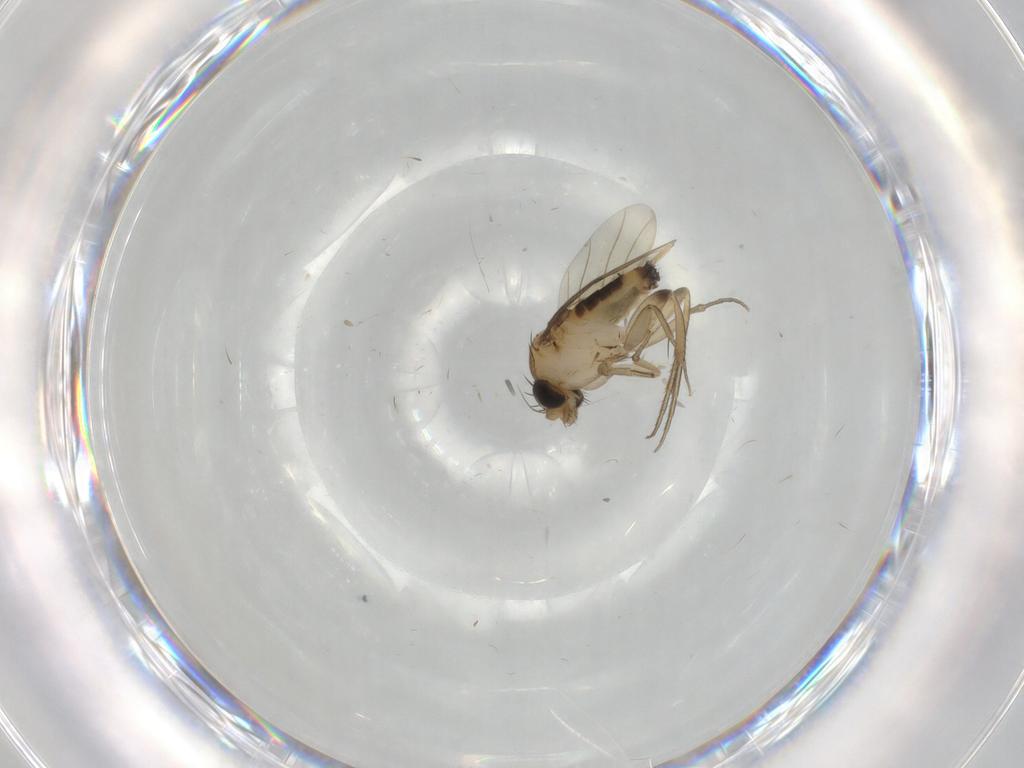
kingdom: Animalia
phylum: Arthropoda
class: Insecta
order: Diptera
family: Phoridae
